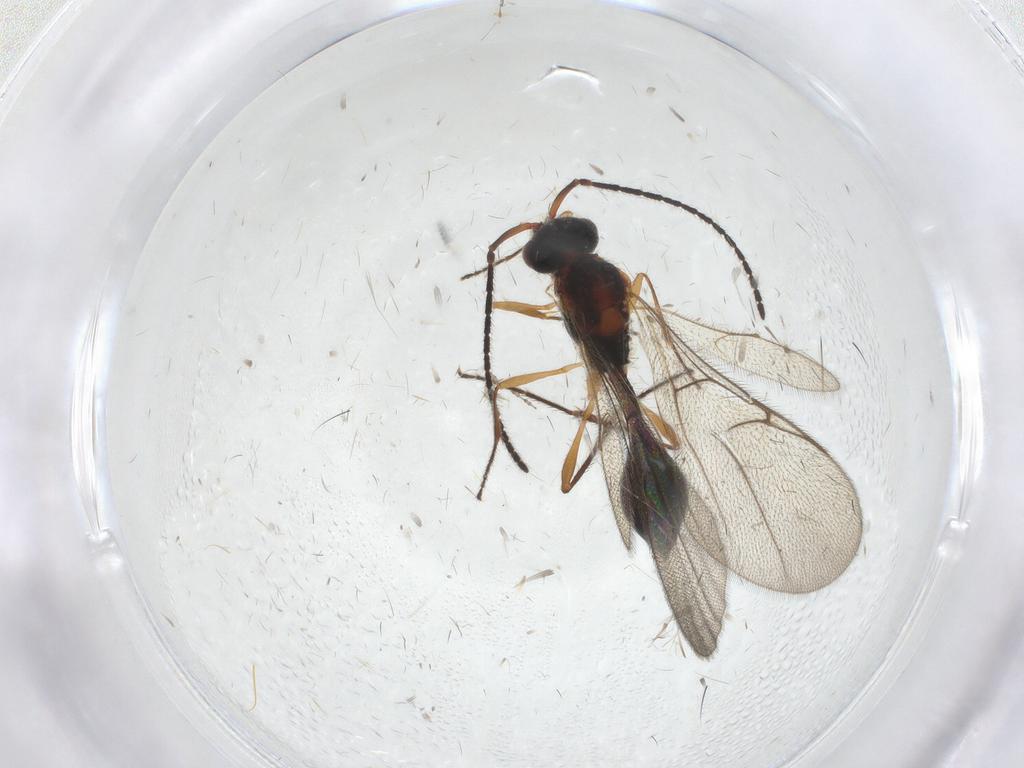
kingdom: Animalia
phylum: Arthropoda
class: Insecta
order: Hymenoptera
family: Diapriidae
